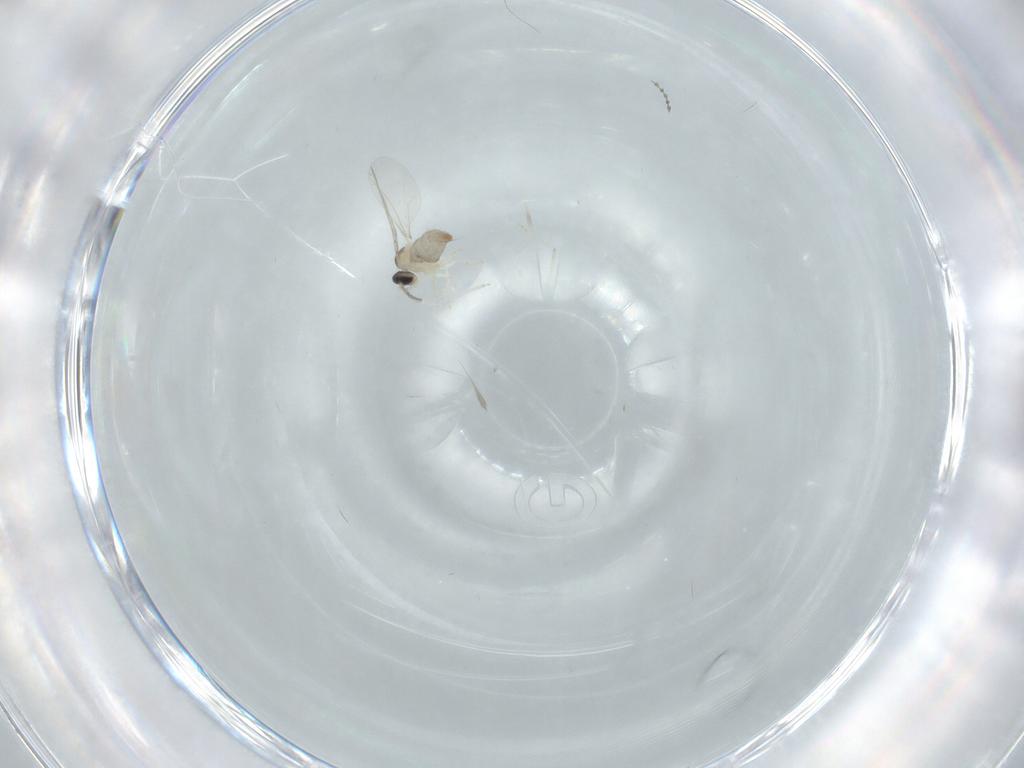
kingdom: Animalia
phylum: Arthropoda
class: Insecta
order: Diptera
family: Cecidomyiidae
